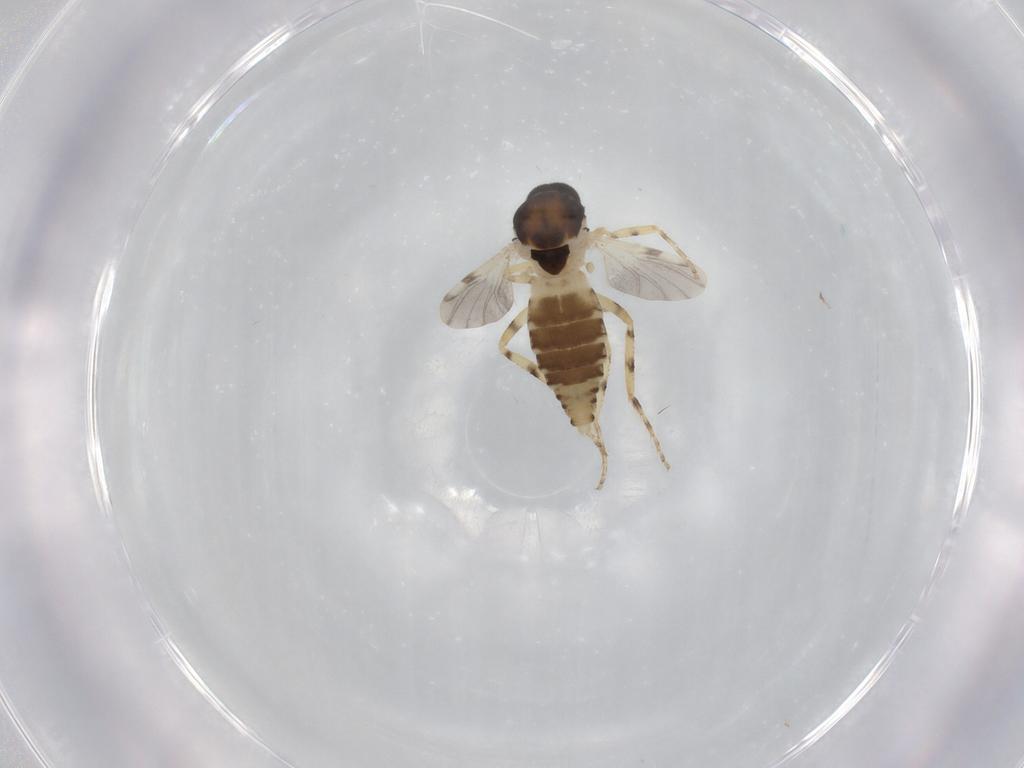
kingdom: Animalia
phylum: Arthropoda
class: Insecta
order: Diptera
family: Ceratopogonidae
